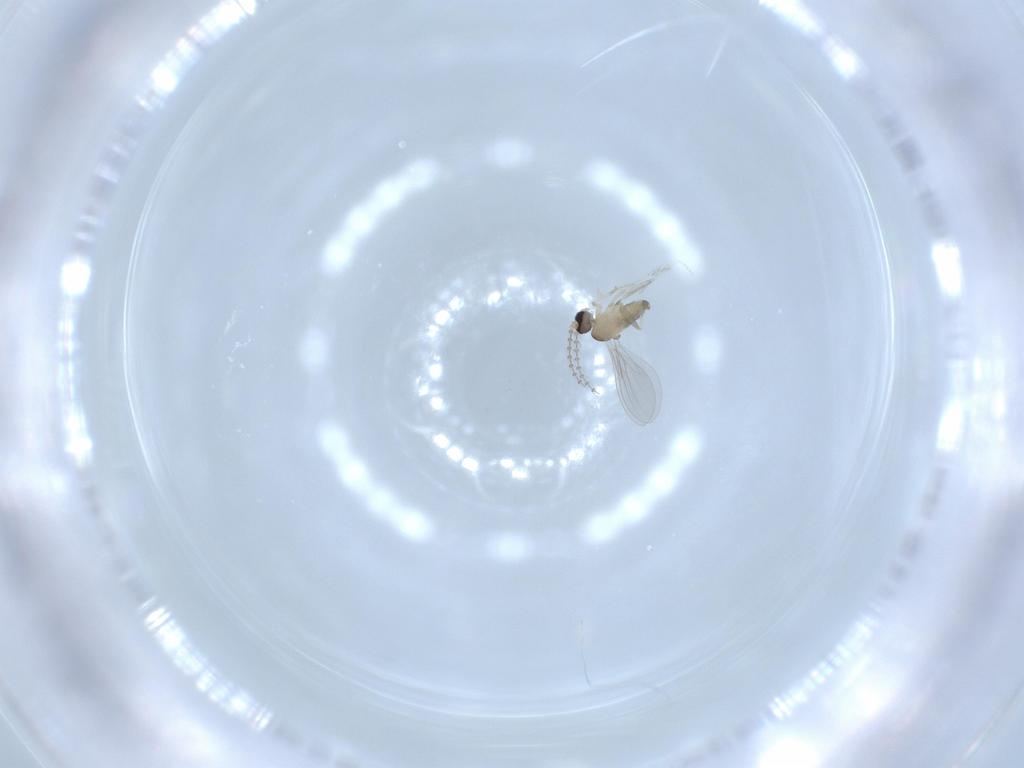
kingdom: Animalia
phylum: Arthropoda
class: Insecta
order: Diptera
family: Cecidomyiidae
